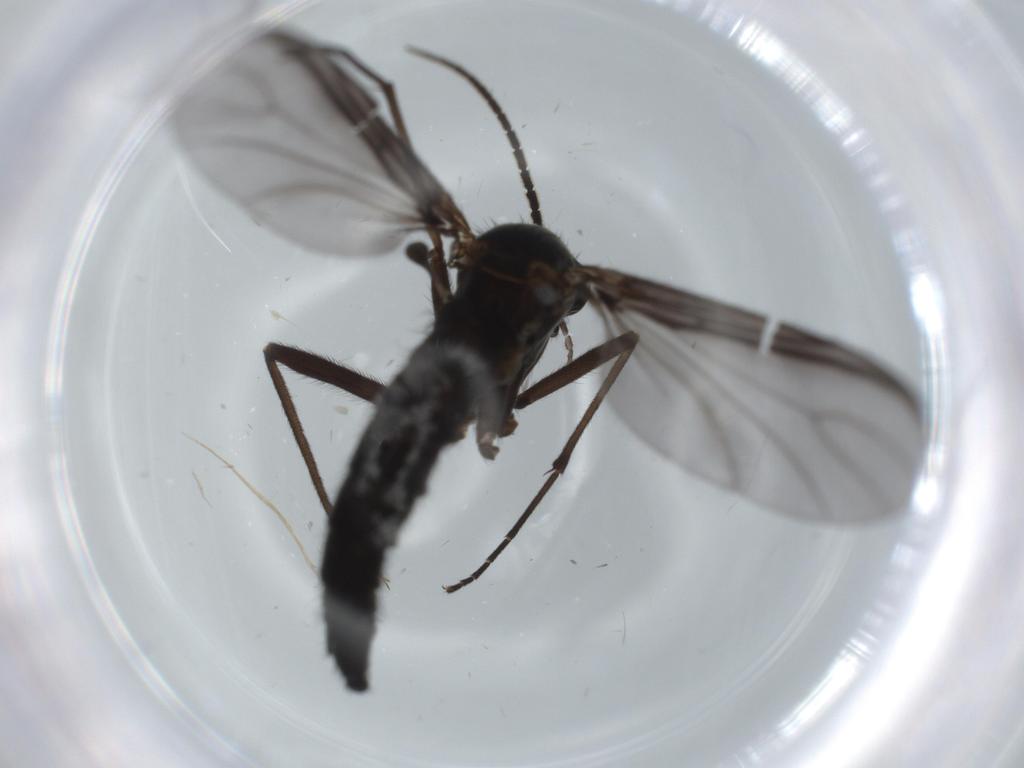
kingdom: Animalia
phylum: Arthropoda
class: Insecta
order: Diptera
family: Cecidomyiidae
